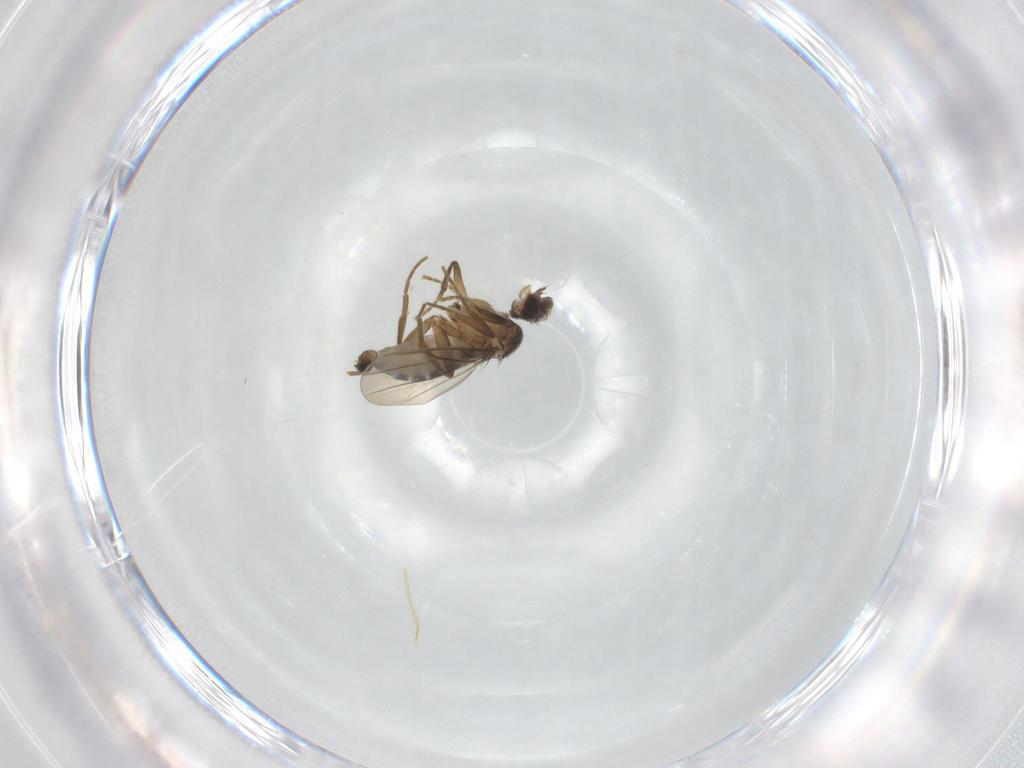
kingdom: Animalia
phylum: Arthropoda
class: Insecta
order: Diptera
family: Phoridae
